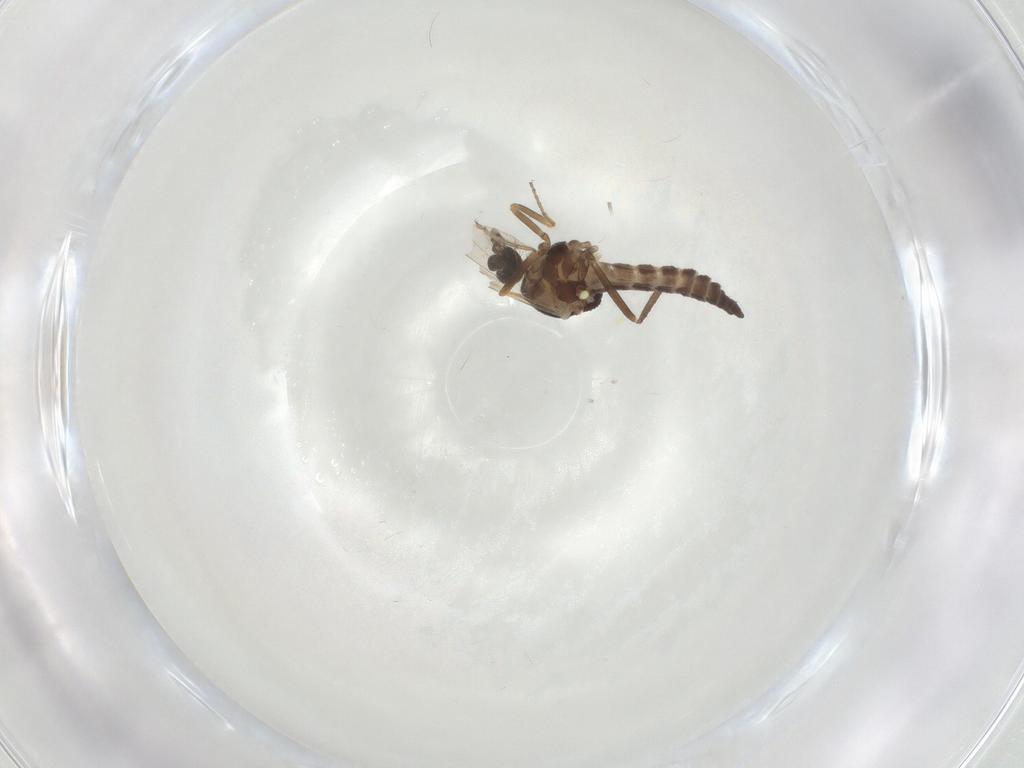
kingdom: Animalia
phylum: Arthropoda
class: Insecta
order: Diptera
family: Ceratopogonidae
